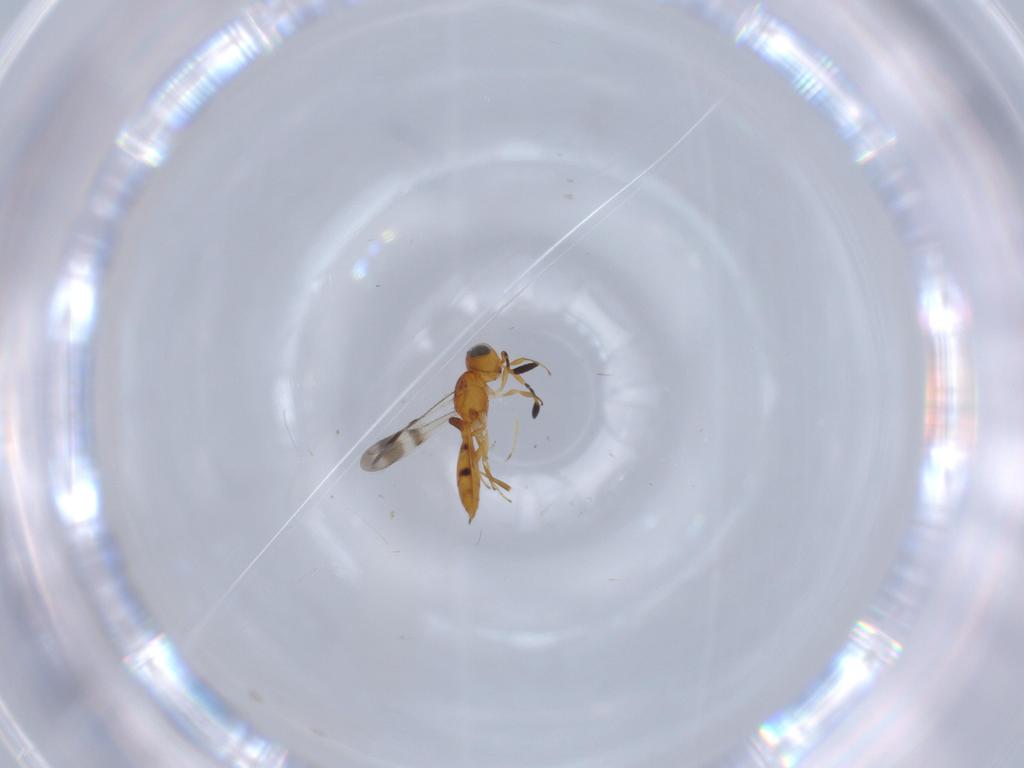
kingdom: Animalia
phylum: Arthropoda
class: Insecta
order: Hymenoptera
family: Scelionidae
